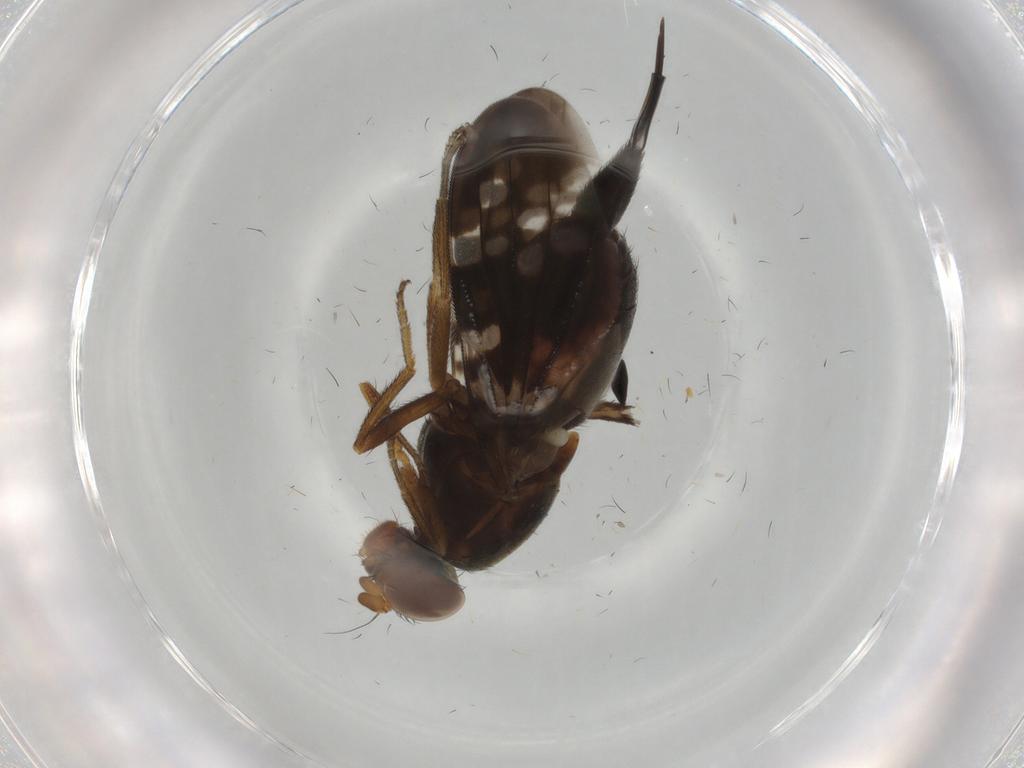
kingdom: Animalia
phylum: Arthropoda
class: Insecta
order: Diptera
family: Ulidiidae
